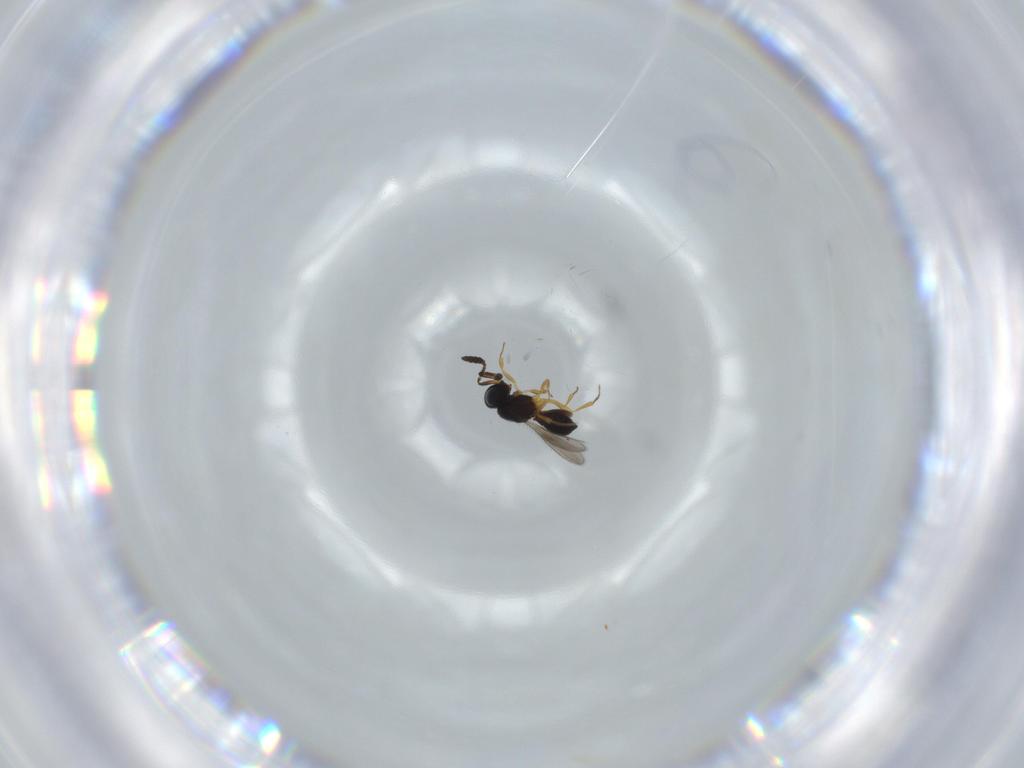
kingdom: Animalia
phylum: Arthropoda
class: Insecta
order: Hymenoptera
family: Scelionidae
